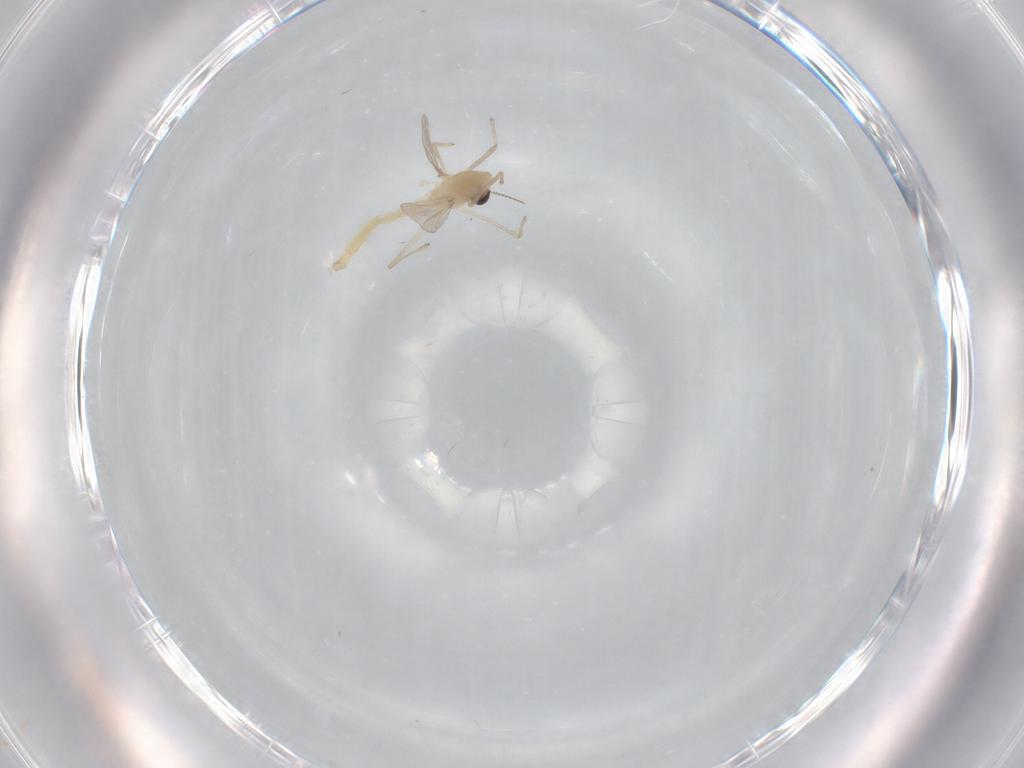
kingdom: Animalia
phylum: Arthropoda
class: Insecta
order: Diptera
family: Chironomidae
